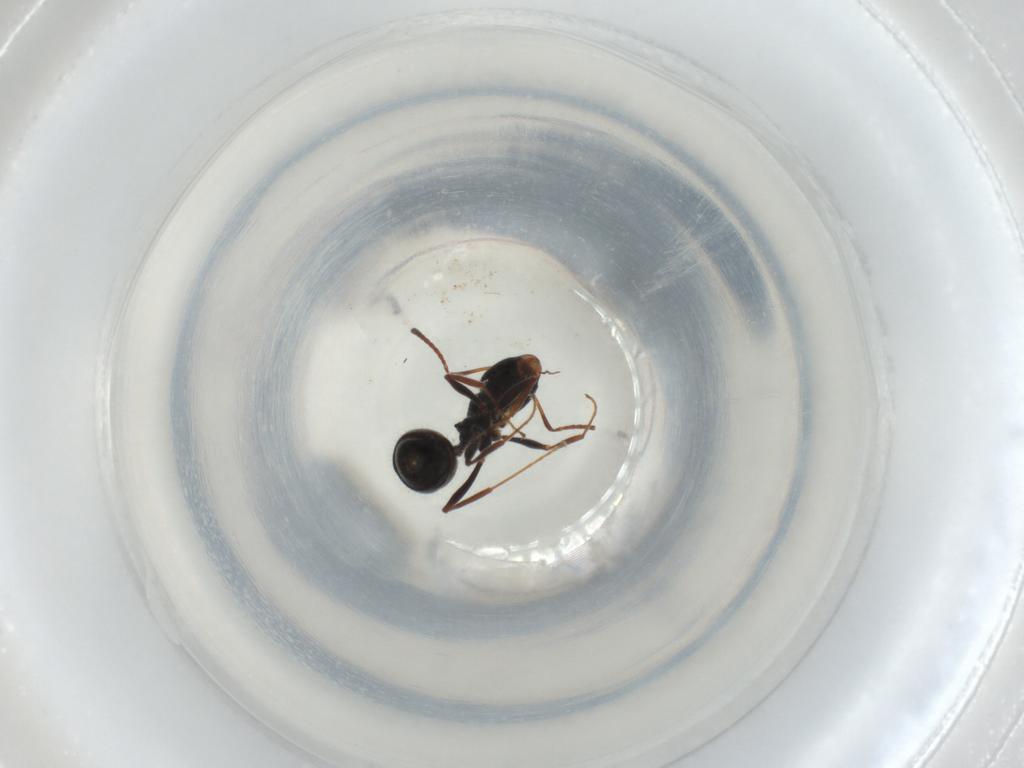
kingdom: Animalia
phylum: Arthropoda
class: Insecta
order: Hymenoptera
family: Formicidae
